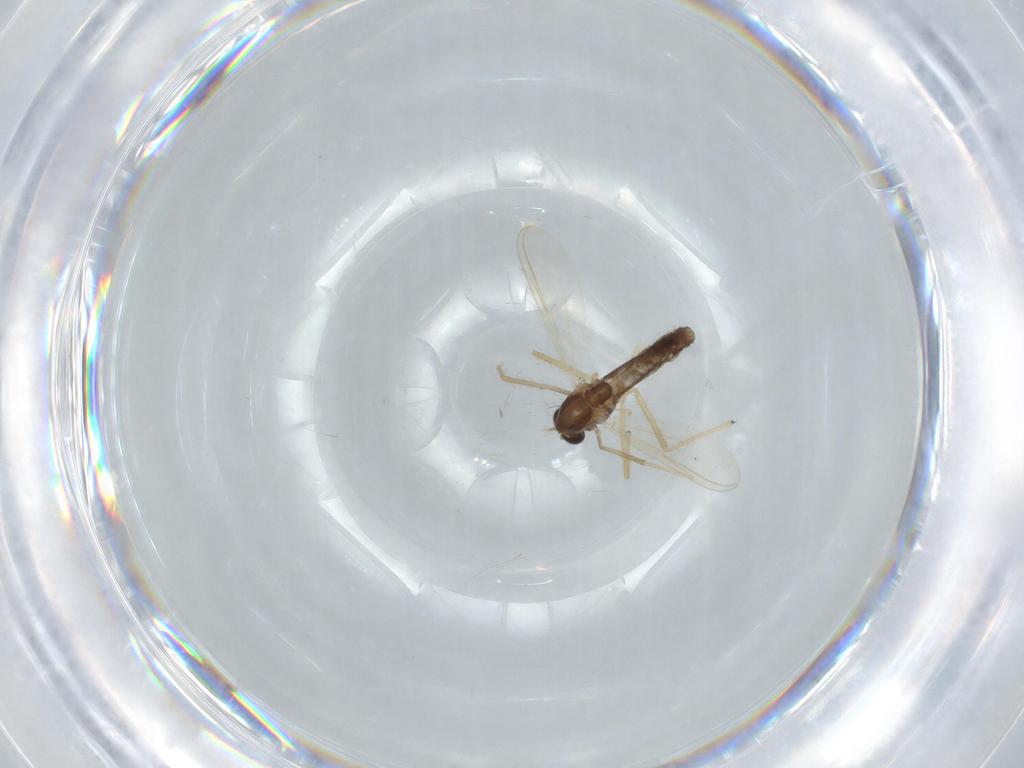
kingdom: Animalia
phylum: Arthropoda
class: Insecta
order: Diptera
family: Chironomidae
